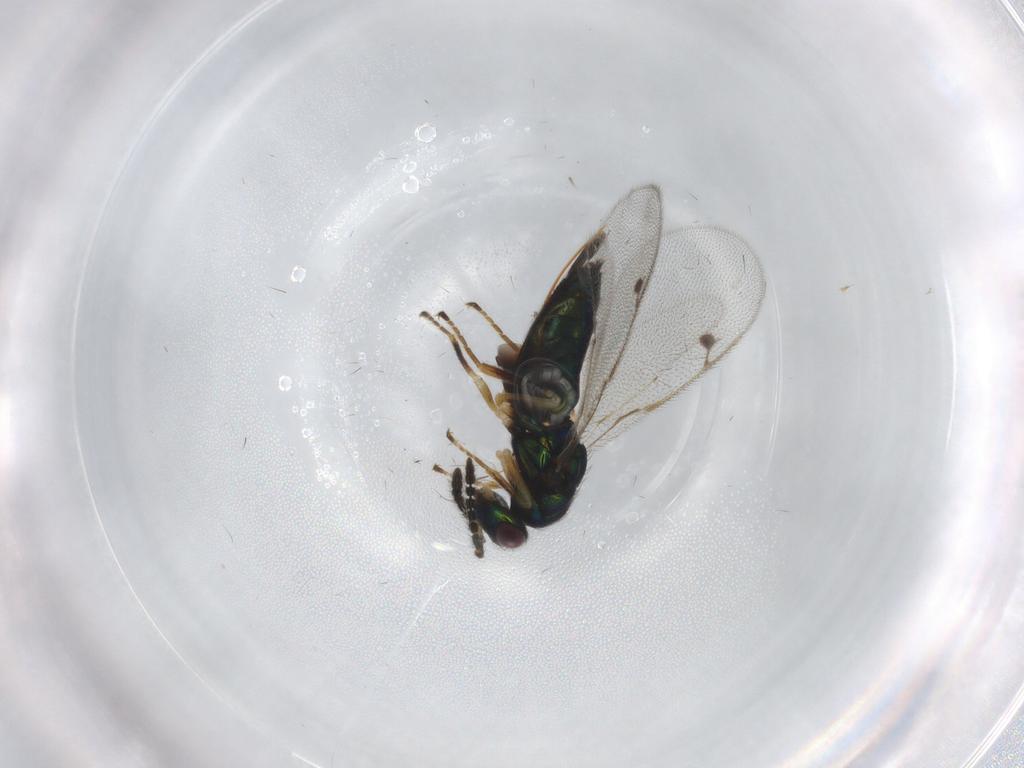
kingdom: Animalia
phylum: Arthropoda
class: Insecta
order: Hymenoptera
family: Pirenidae
